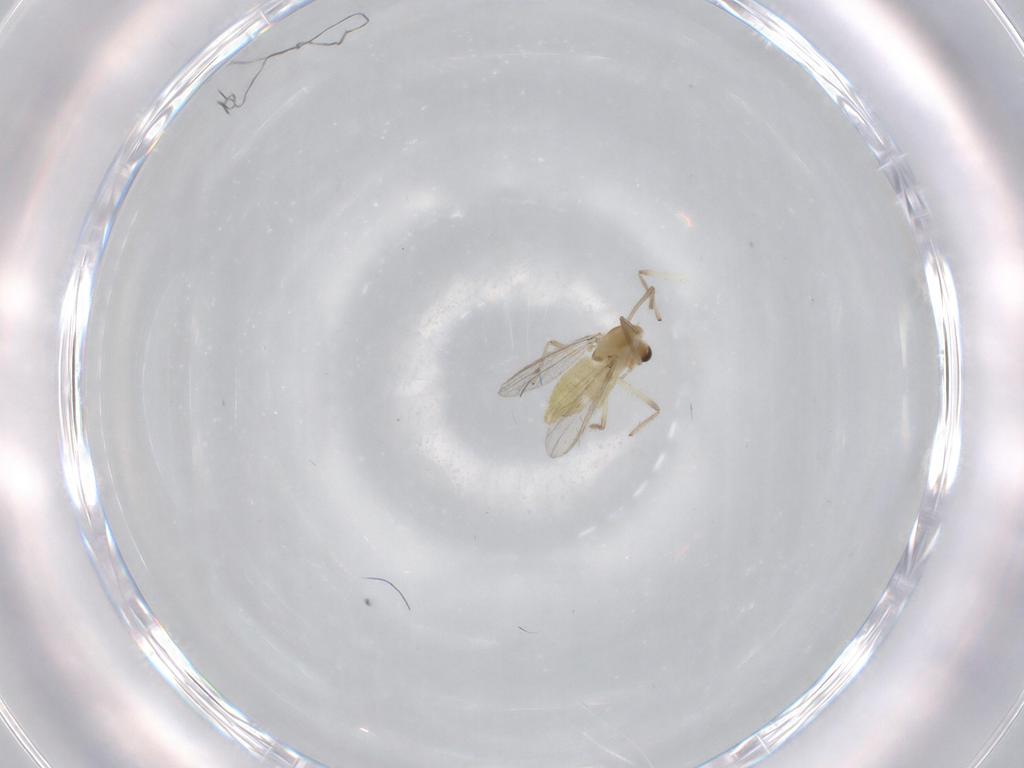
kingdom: Animalia
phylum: Arthropoda
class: Insecta
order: Diptera
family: Chironomidae
